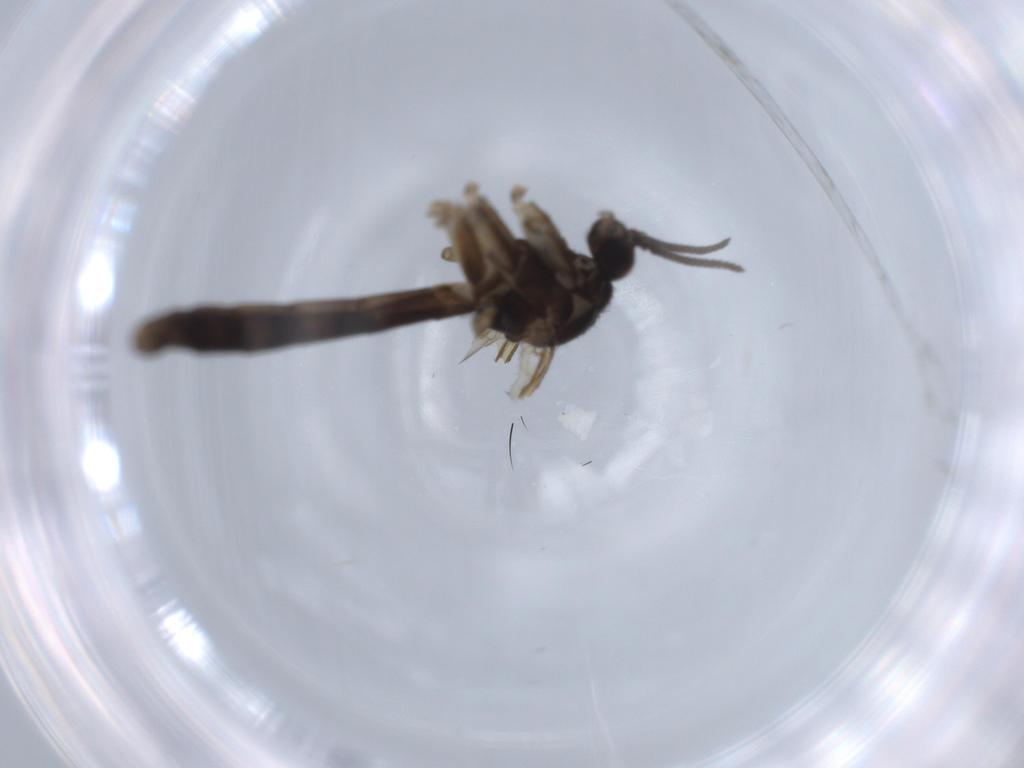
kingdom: Animalia
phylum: Arthropoda
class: Insecta
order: Diptera
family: Keroplatidae
